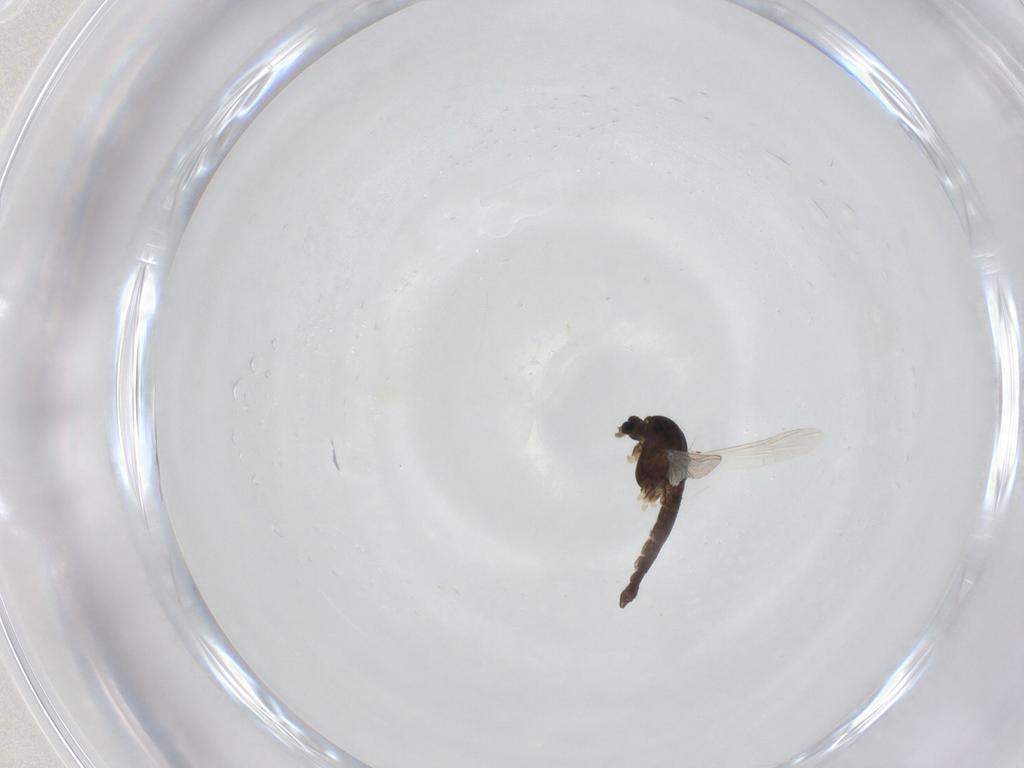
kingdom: Animalia
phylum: Arthropoda
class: Insecta
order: Diptera
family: Chironomidae
